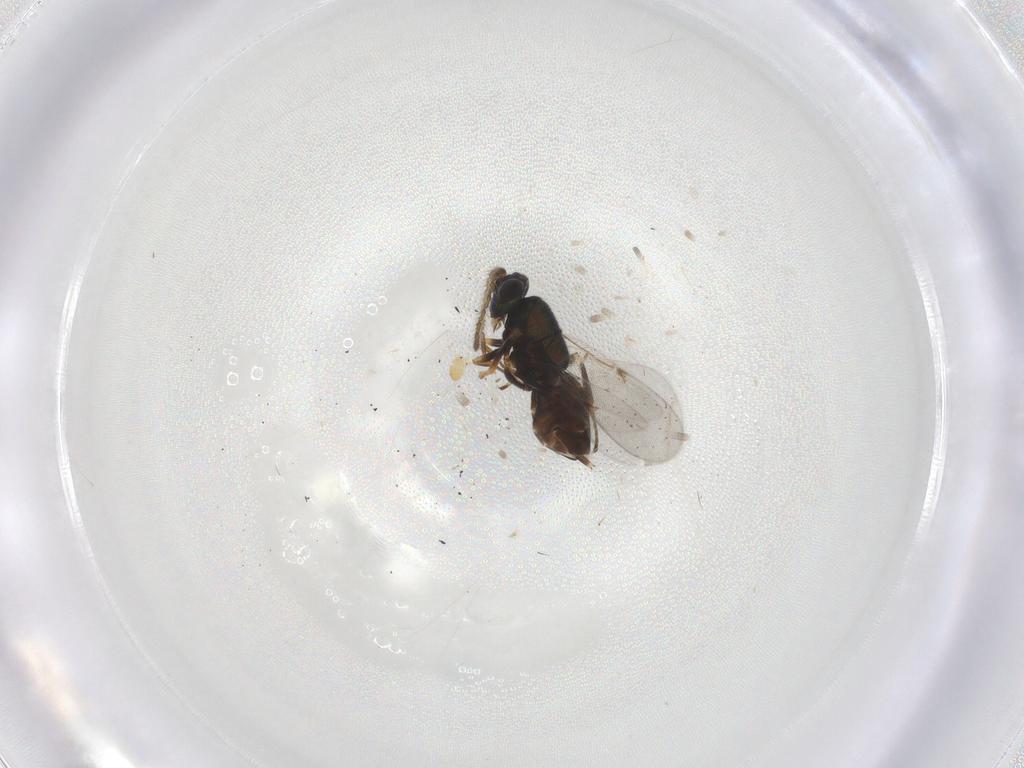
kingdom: Animalia
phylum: Arthropoda
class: Insecta
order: Hymenoptera
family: Encyrtidae
